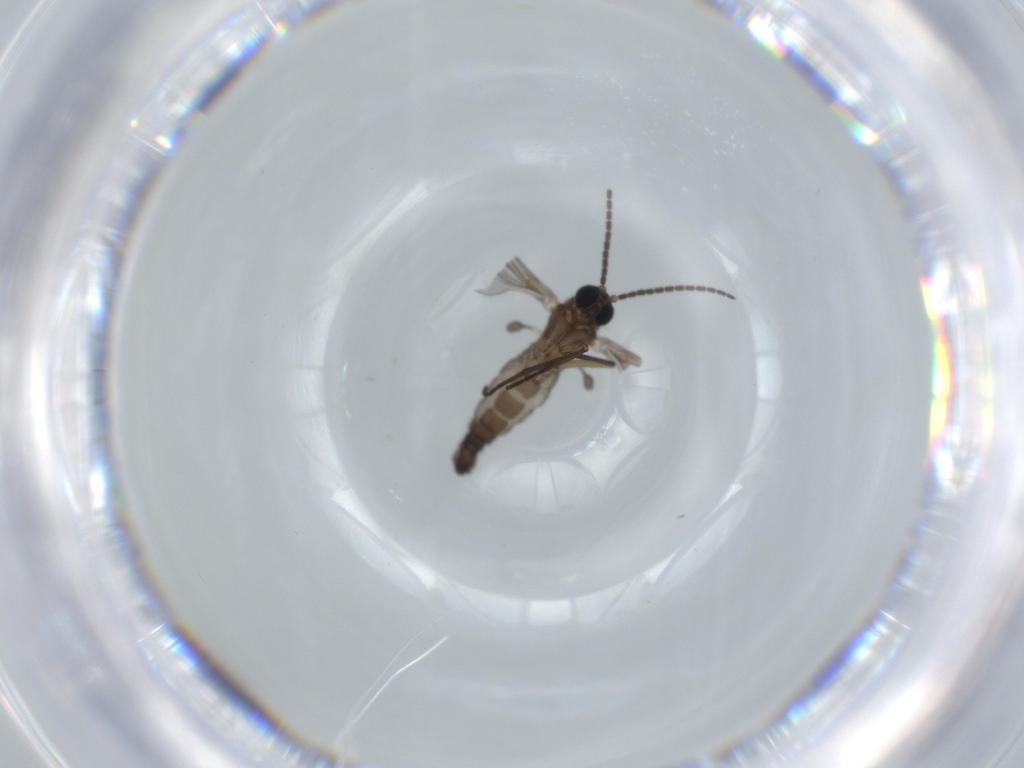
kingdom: Animalia
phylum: Arthropoda
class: Insecta
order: Diptera
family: Sciaridae
